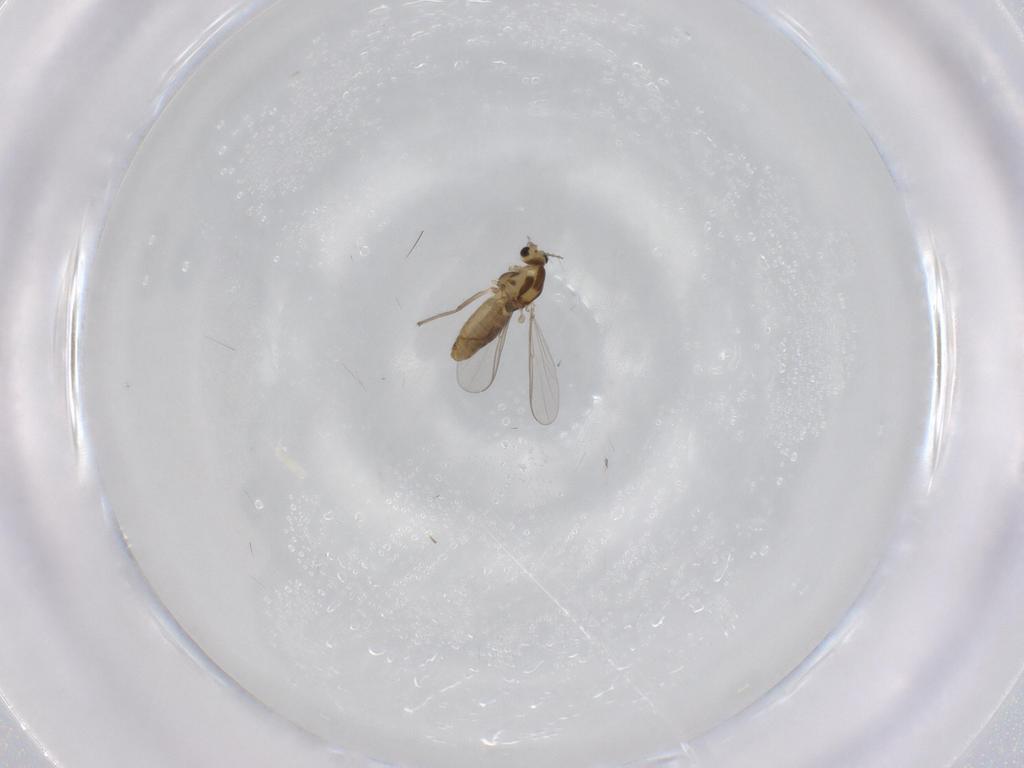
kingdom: Animalia
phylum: Arthropoda
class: Insecta
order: Diptera
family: Chironomidae
